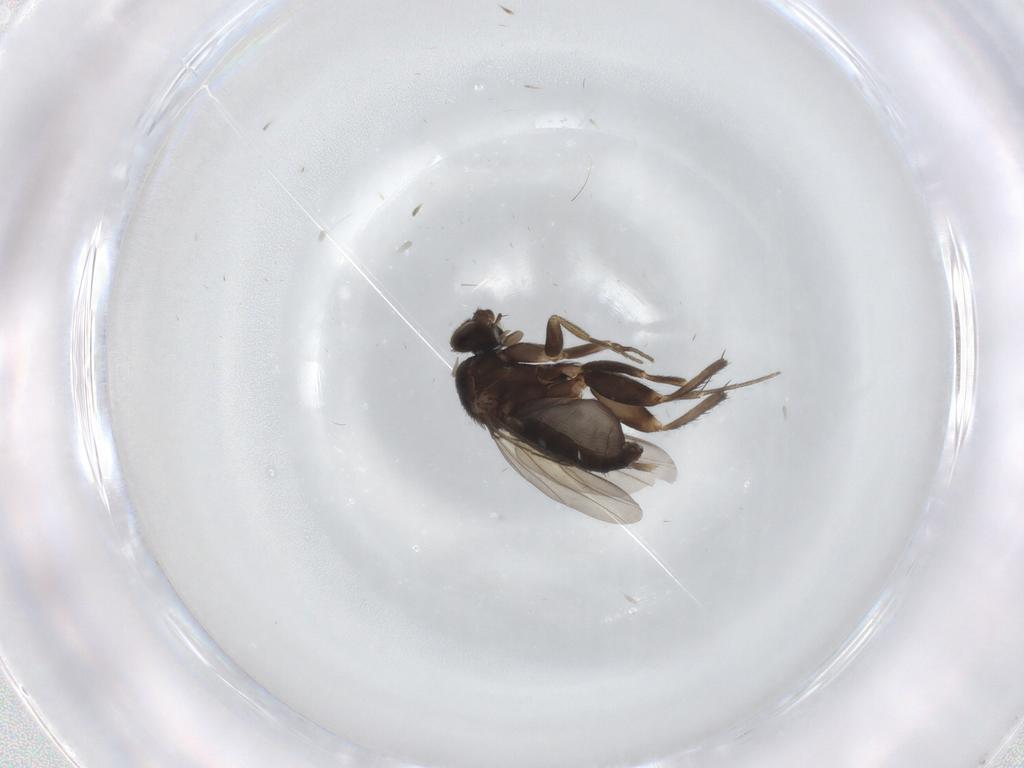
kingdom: Animalia
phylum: Arthropoda
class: Insecta
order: Diptera
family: Phoridae
